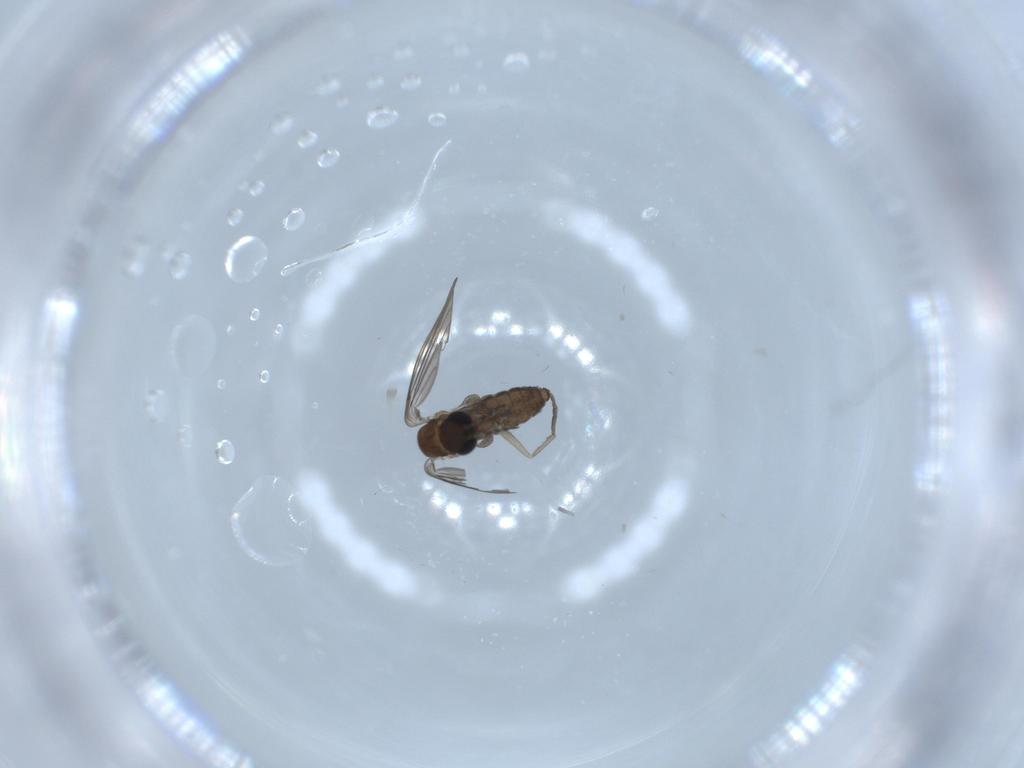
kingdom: Animalia
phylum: Arthropoda
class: Insecta
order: Diptera
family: Psychodidae
